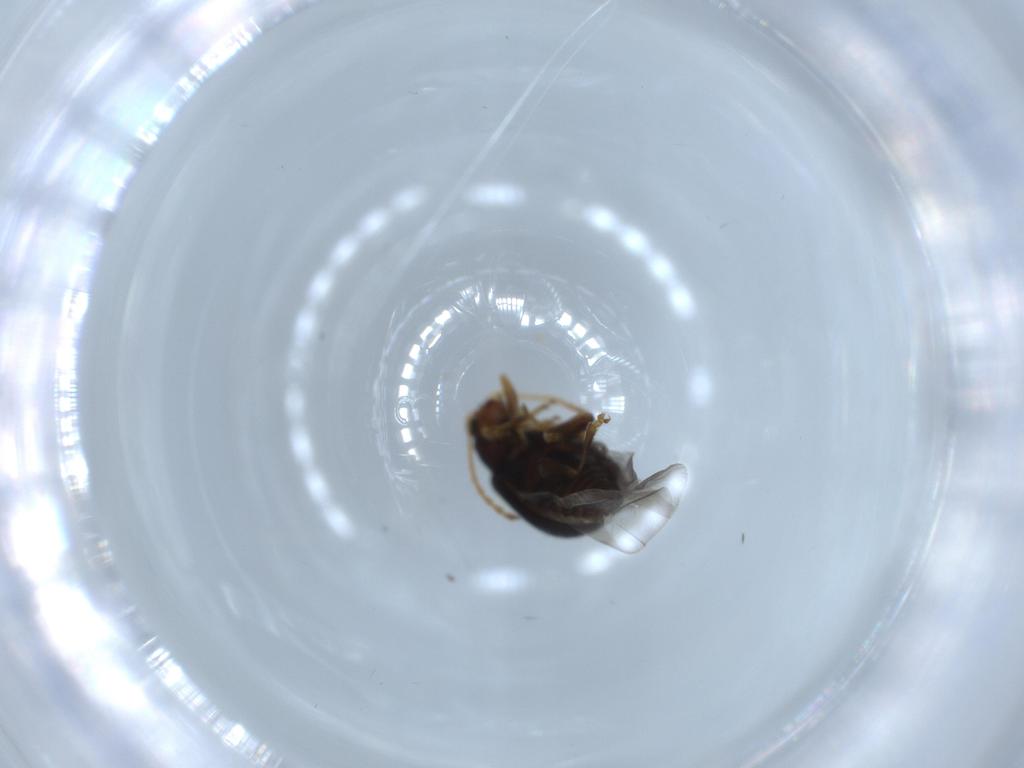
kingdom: Animalia
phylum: Arthropoda
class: Insecta
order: Coleoptera
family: Chrysomelidae
